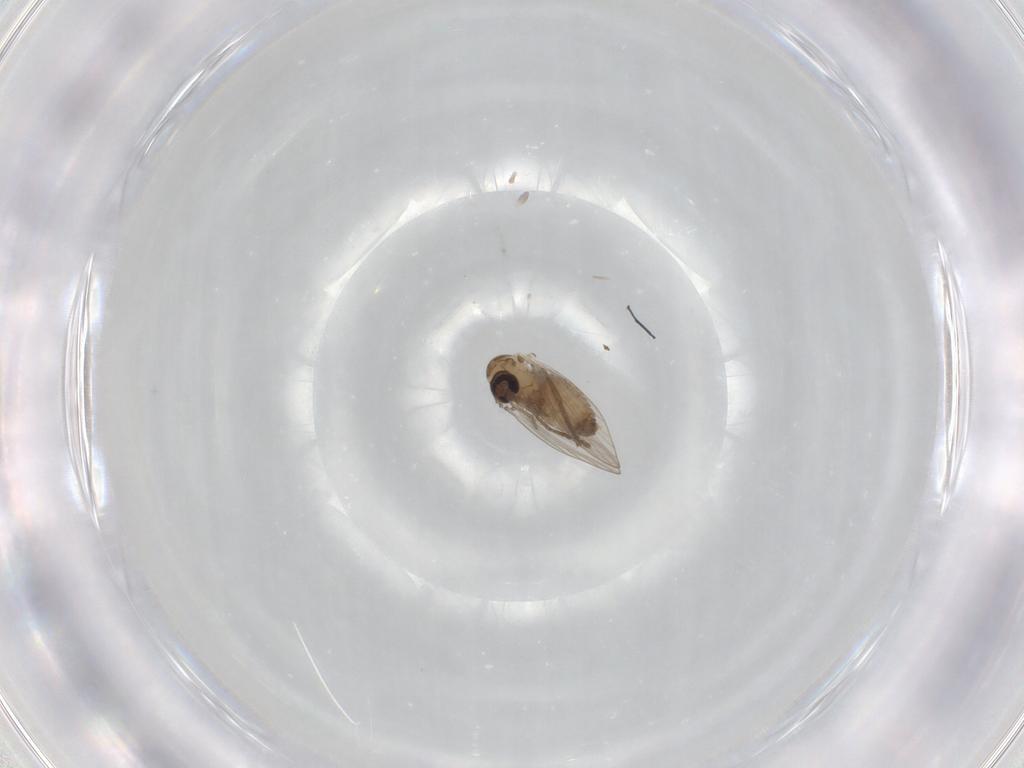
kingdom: Animalia
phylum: Arthropoda
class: Insecta
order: Diptera
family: Psychodidae
